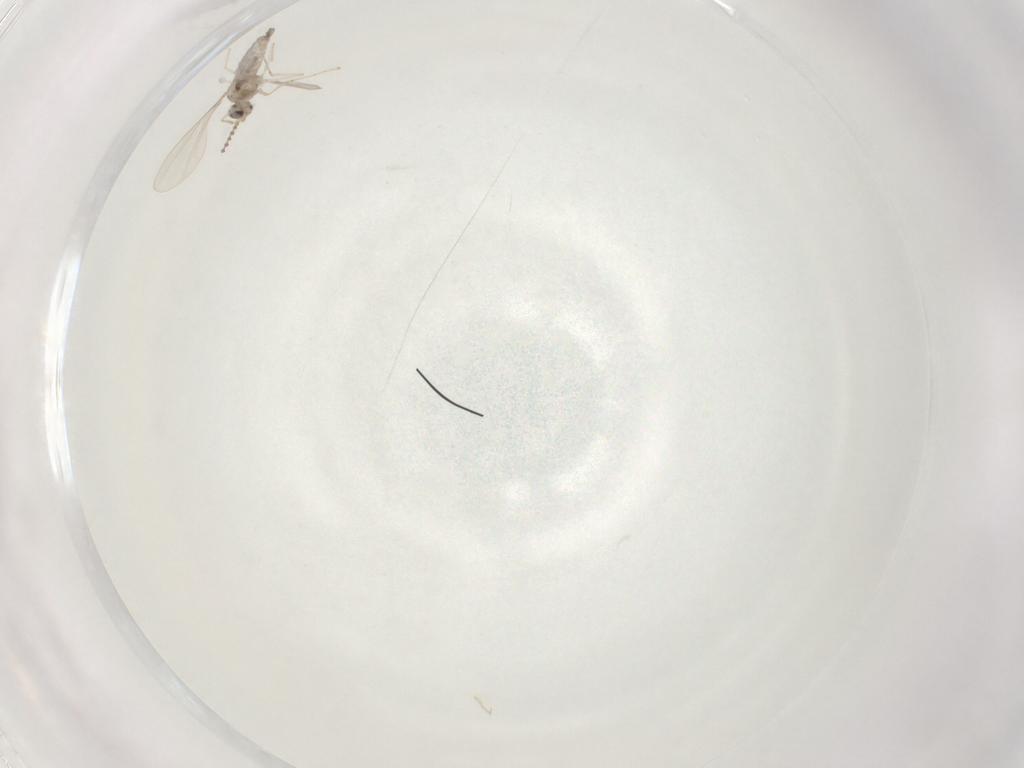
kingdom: Animalia
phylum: Arthropoda
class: Insecta
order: Diptera
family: Cecidomyiidae
